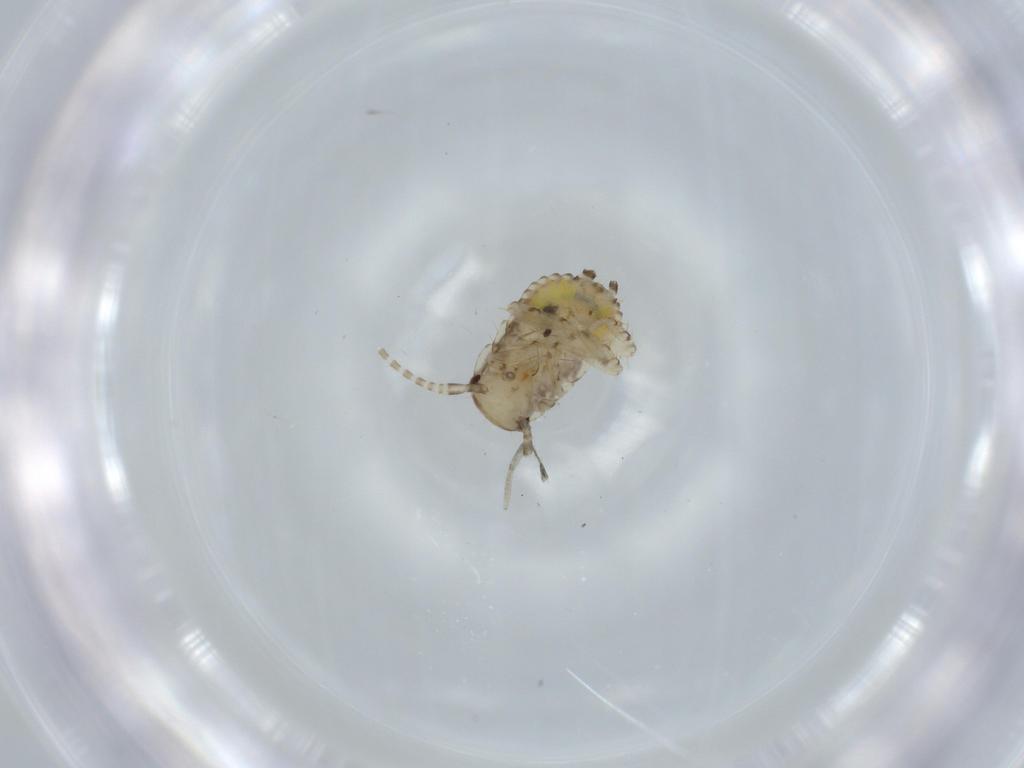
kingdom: Animalia
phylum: Arthropoda
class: Insecta
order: Blattodea
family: Ectobiidae
